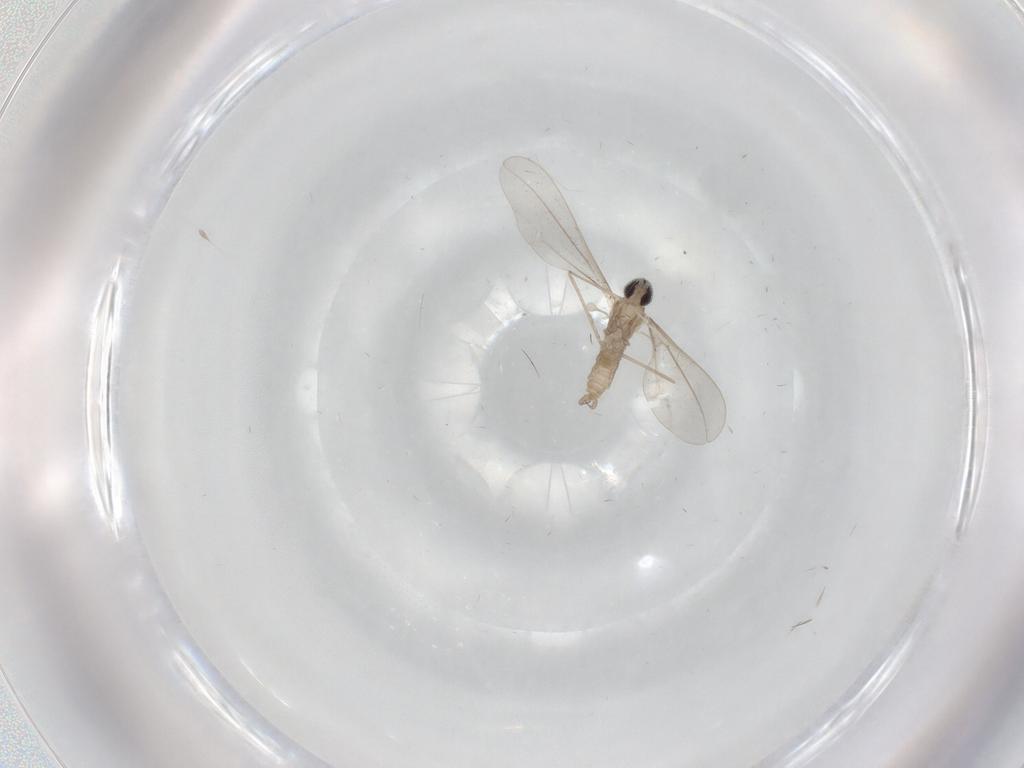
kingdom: Animalia
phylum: Arthropoda
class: Insecta
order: Diptera
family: Cecidomyiidae
